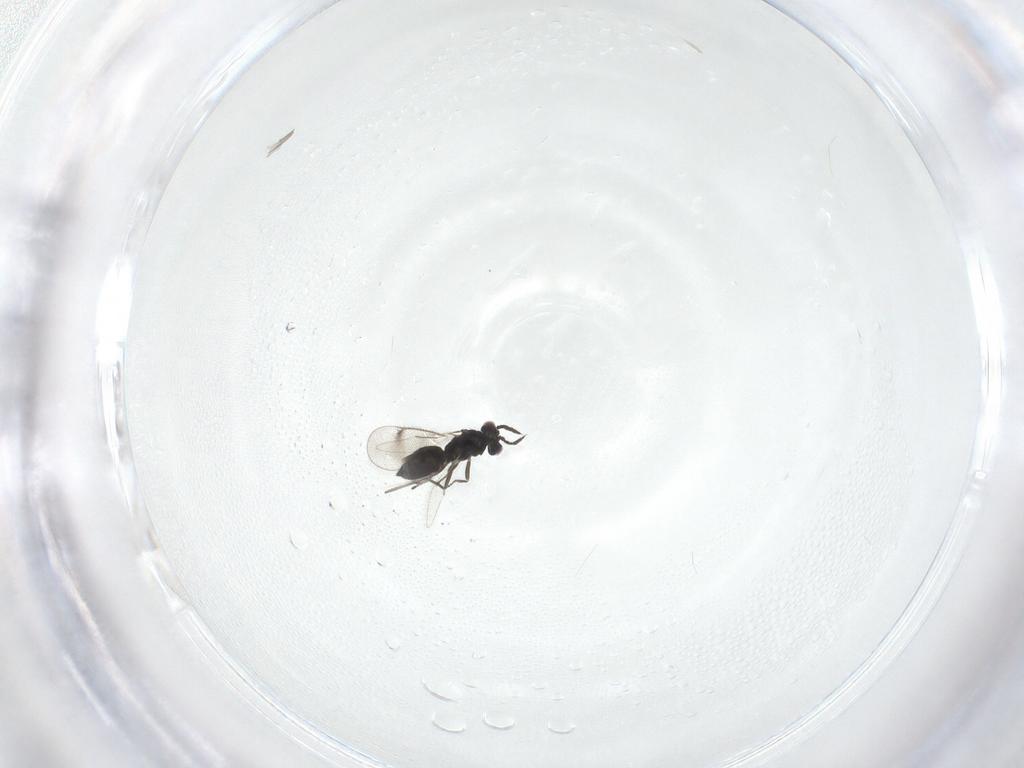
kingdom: Animalia
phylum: Arthropoda
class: Insecta
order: Hymenoptera
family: Eulophidae
